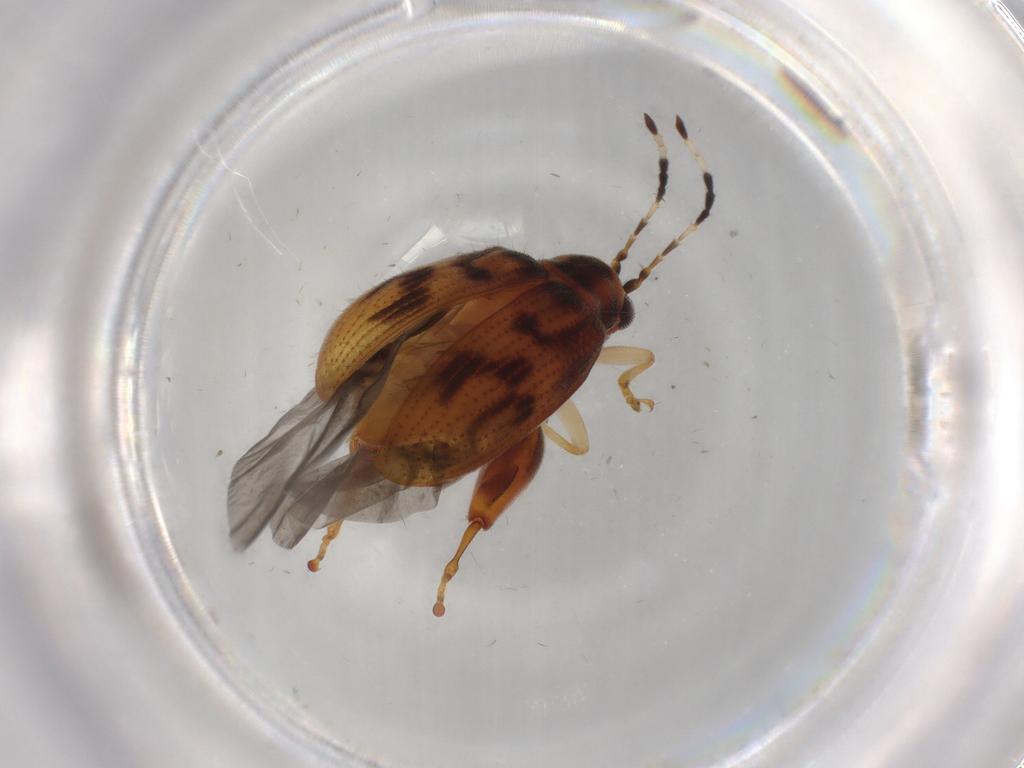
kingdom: Animalia
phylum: Arthropoda
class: Insecta
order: Coleoptera
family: Chrysomelidae
